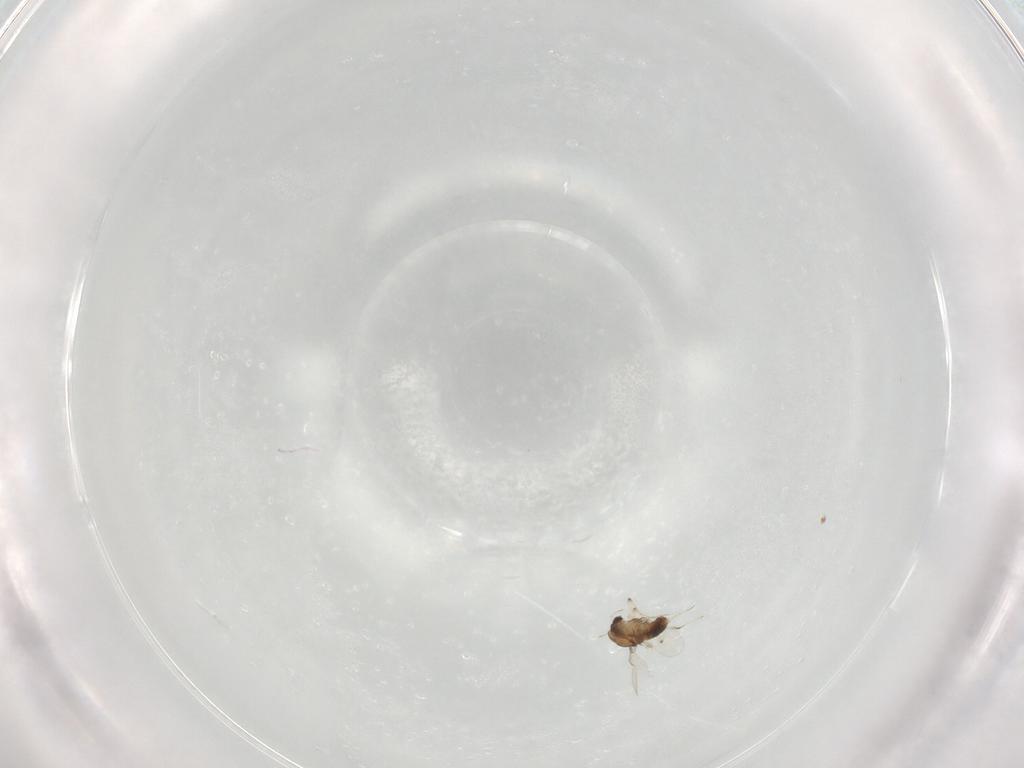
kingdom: Animalia
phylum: Arthropoda
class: Insecta
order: Diptera
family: Chironomidae
